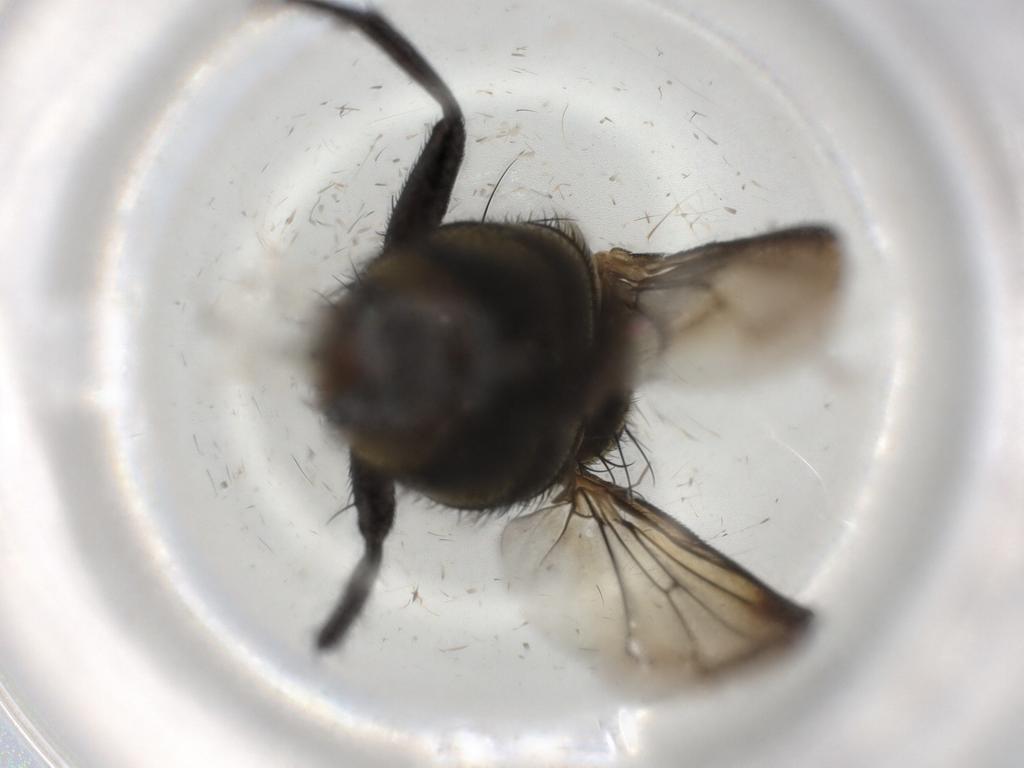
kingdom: Animalia
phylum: Arthropoda
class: Insecta
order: Diptera
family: Sarcophagidae
